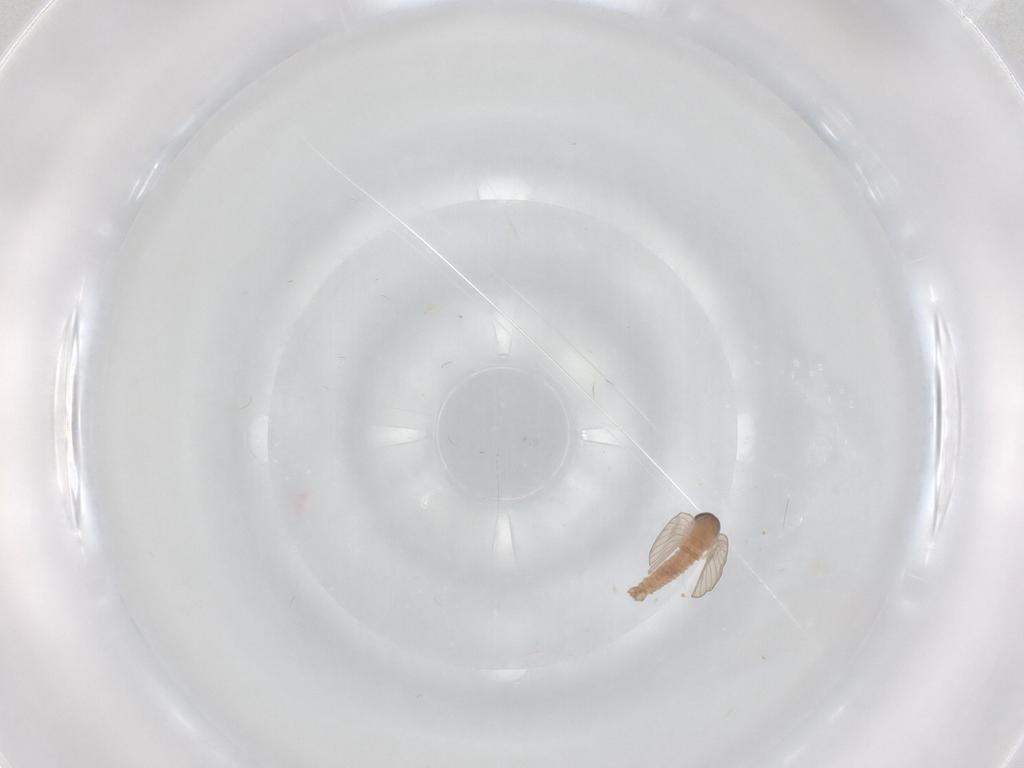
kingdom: Animalia
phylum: Arthropoda
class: Insecta
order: Diptera
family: Psychodidae
